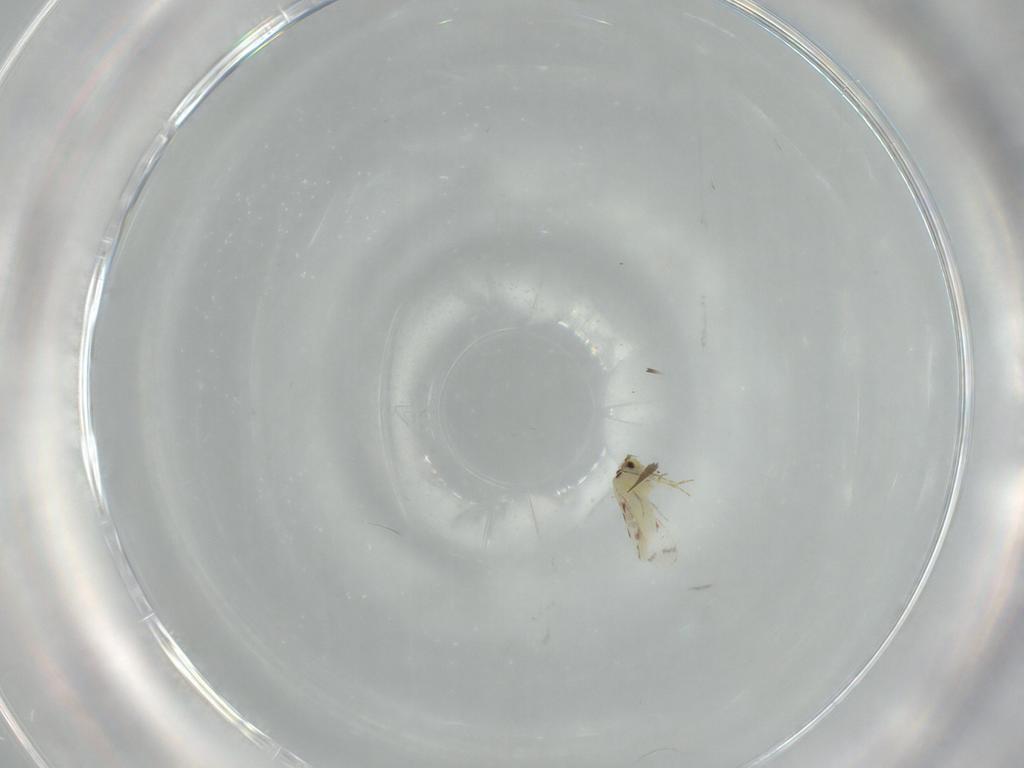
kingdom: Animalia
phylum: Arthropoda
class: Insecta
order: Hemiptera
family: Aleyrodidae
